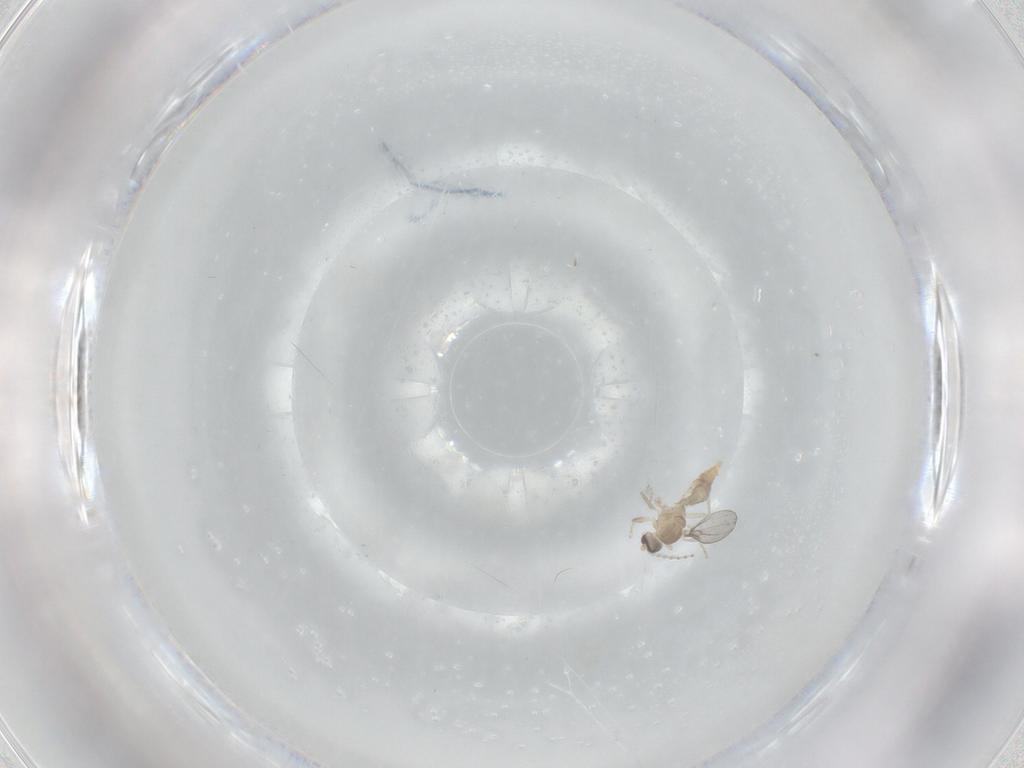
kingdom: Animalia
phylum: Arthropoda
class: Insecta
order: Diptera
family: Cecidomyiidae
